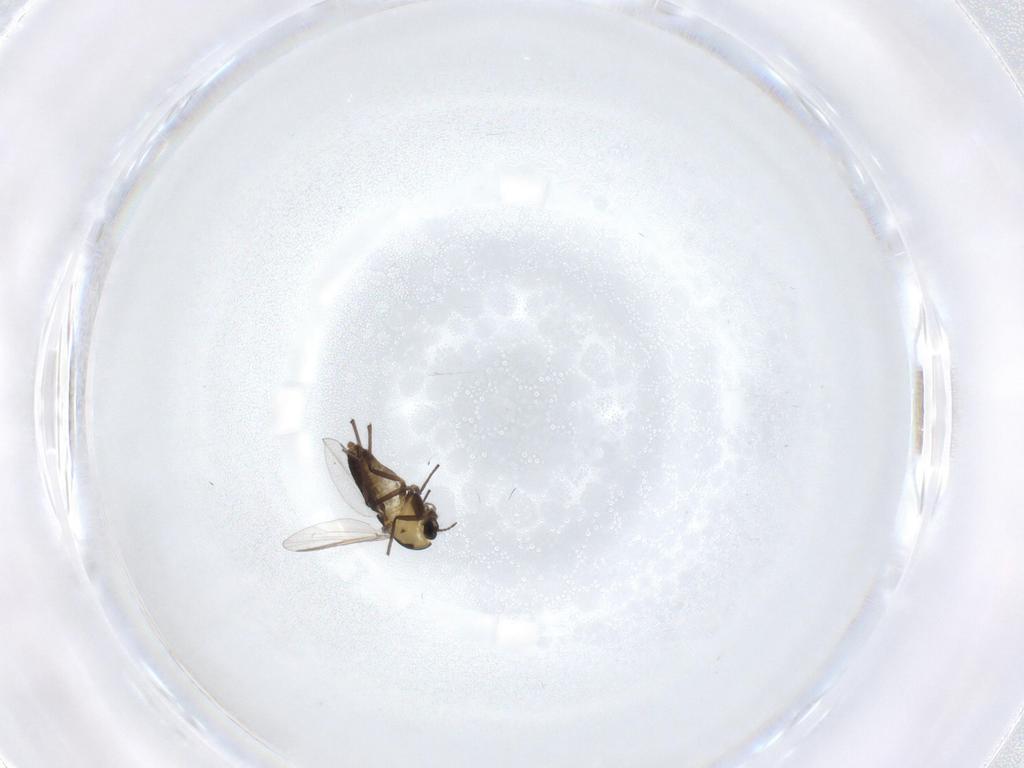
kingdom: Animalia
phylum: Arthropoda
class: Insecta
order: Diptera
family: Chironomidae
